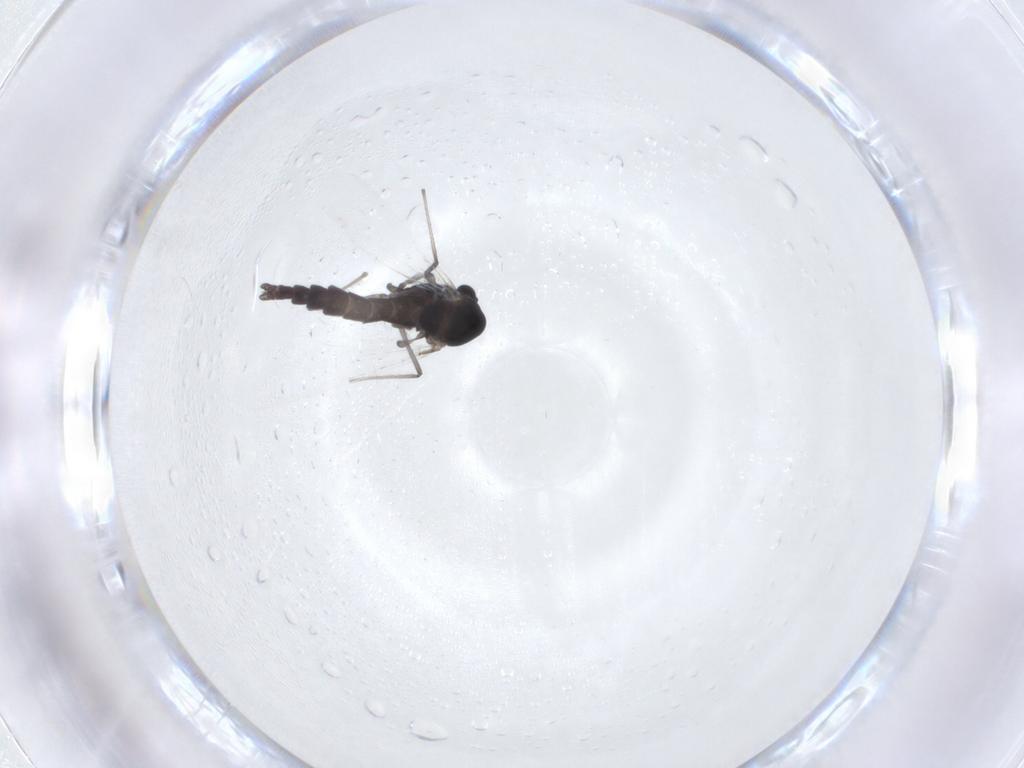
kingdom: Animalia
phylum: Arthropoda
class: Insecta
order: Diptera
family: Chironomidae
